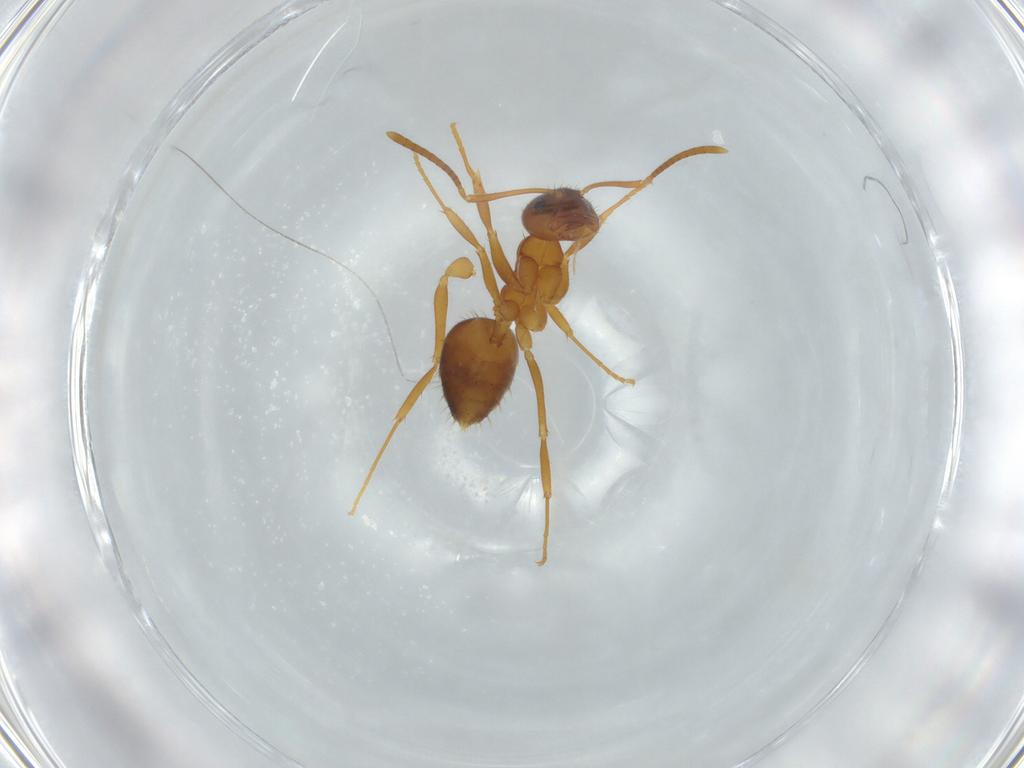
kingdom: Animalia
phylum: Arthropoda
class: Insecta
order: Hymenoptera
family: Formicidae
